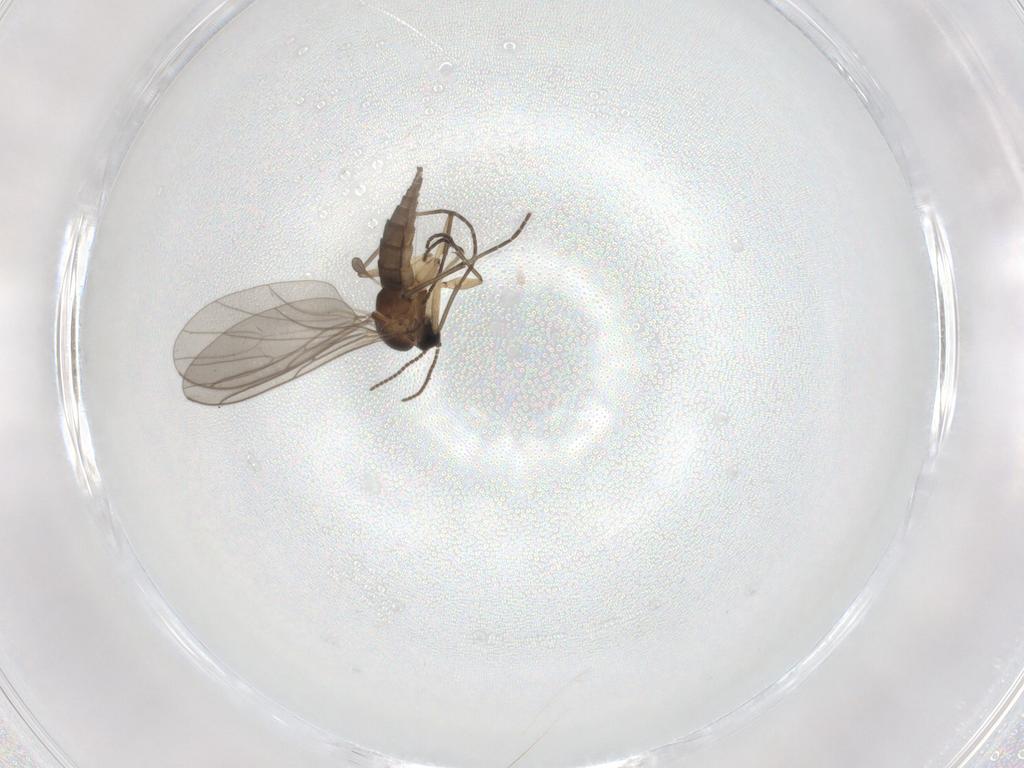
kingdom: Animalia
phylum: Arthropoda
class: Insecta
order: Diptera
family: Sciaridae
